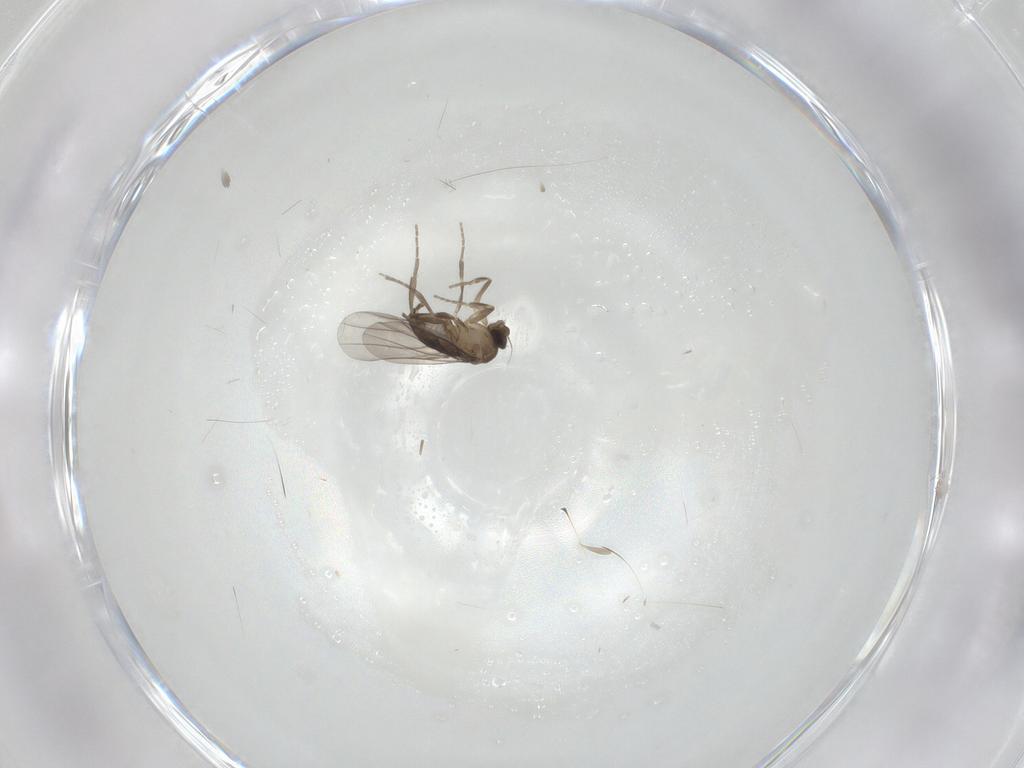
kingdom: Animalia
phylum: Arthropoda
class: Insecta
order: Diptera
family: Phoridae
